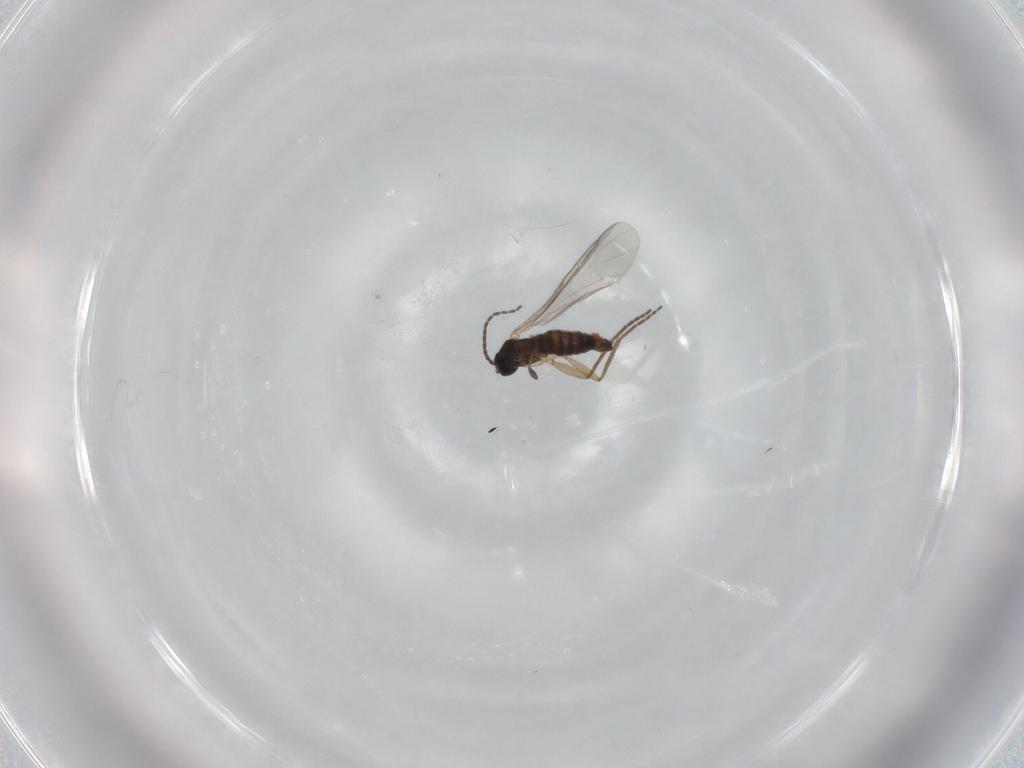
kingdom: Animalia
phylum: Arthropoda
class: Insecta
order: Diptera
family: Sciaridae
